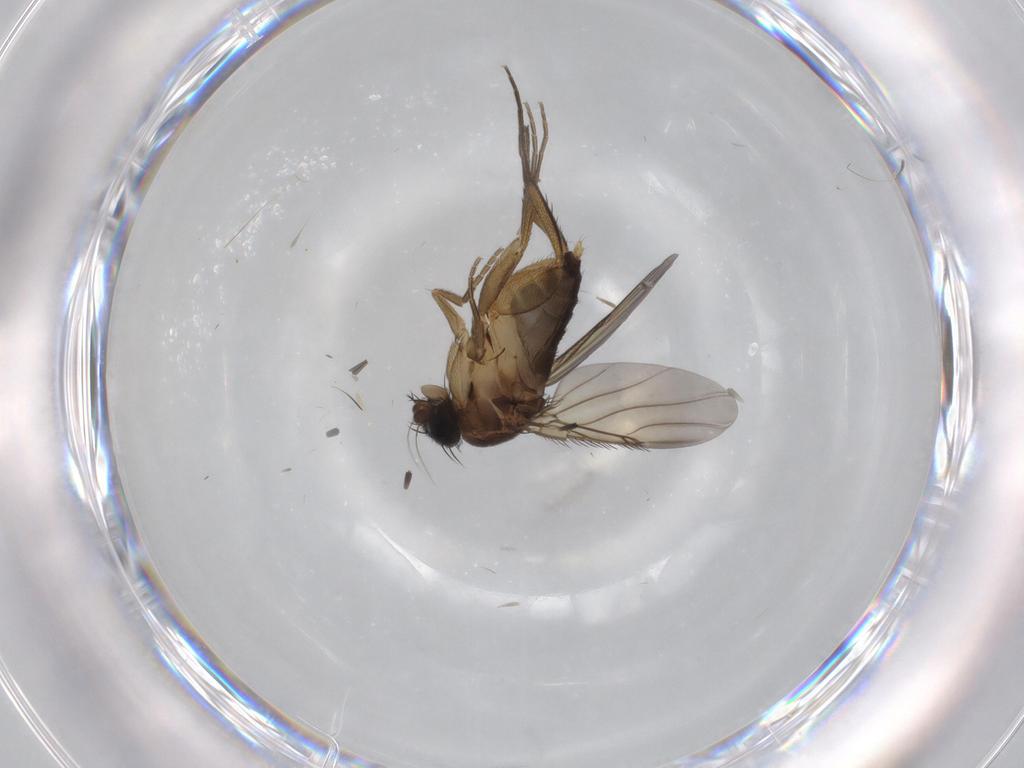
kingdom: Animalia
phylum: Arthropoda
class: Insecta
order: Diptera
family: Phoridae
